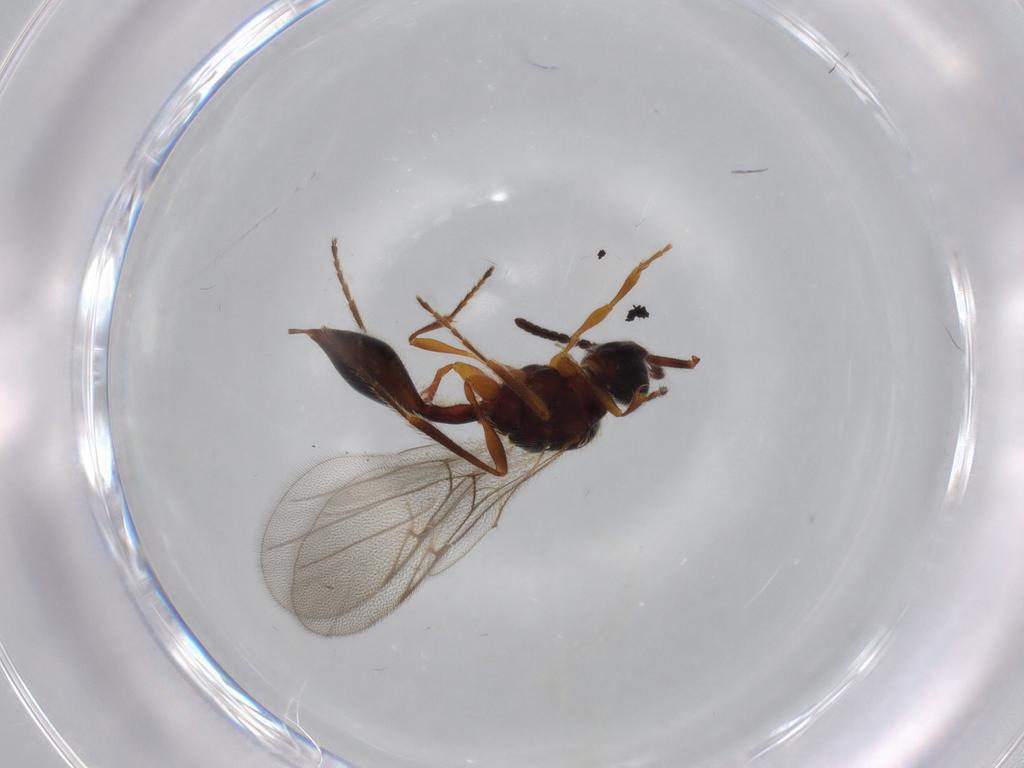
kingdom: Animalia
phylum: Arthropoda
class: Insecta
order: Hymenoptera
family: Diapriidae
